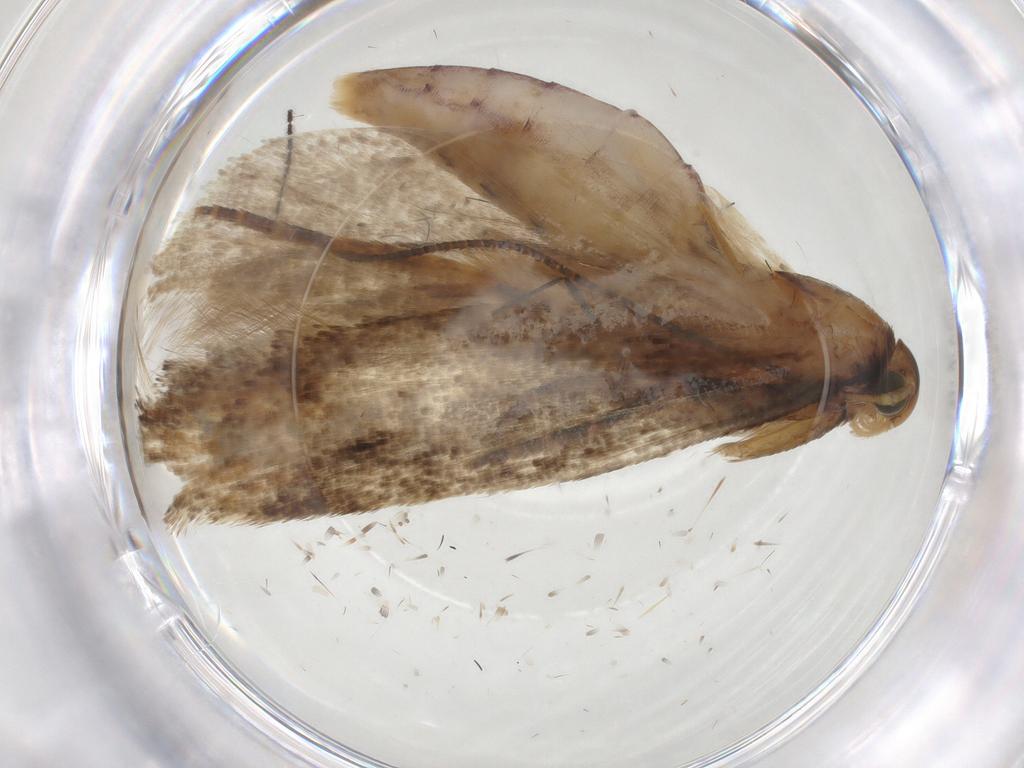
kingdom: Animalia
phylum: Arthropoda
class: Insecta
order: Lepidoptera
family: Gelechiidae
